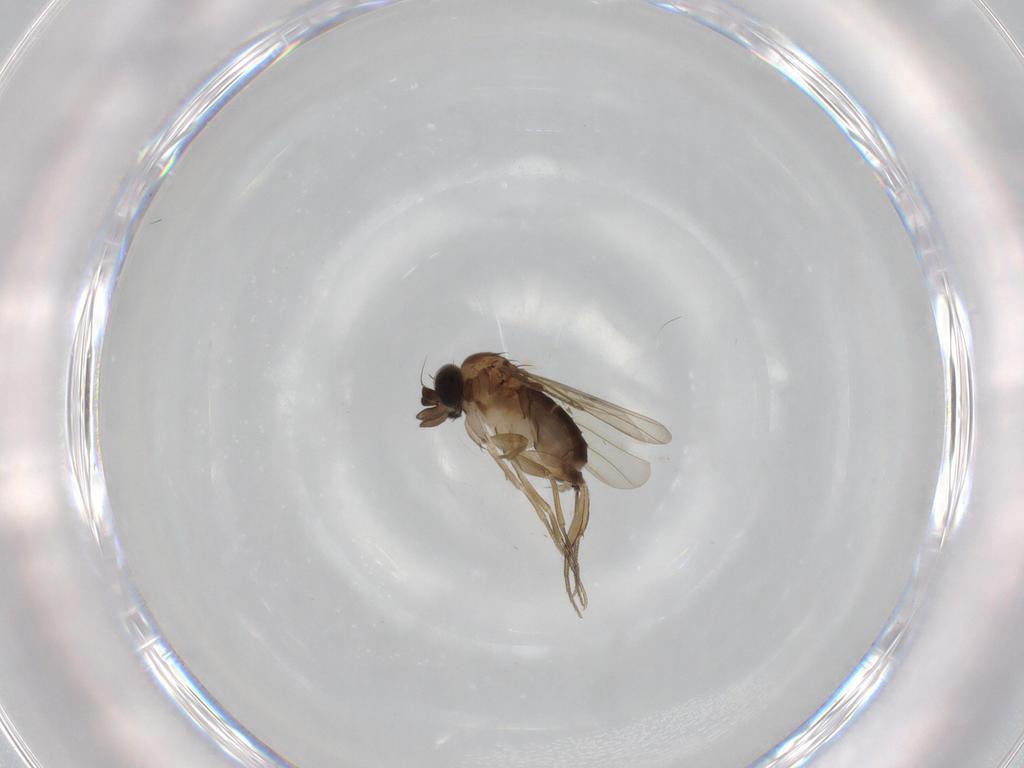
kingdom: Animalia
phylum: Arthropoda
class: Insecta
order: Diptera
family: Phoridae
